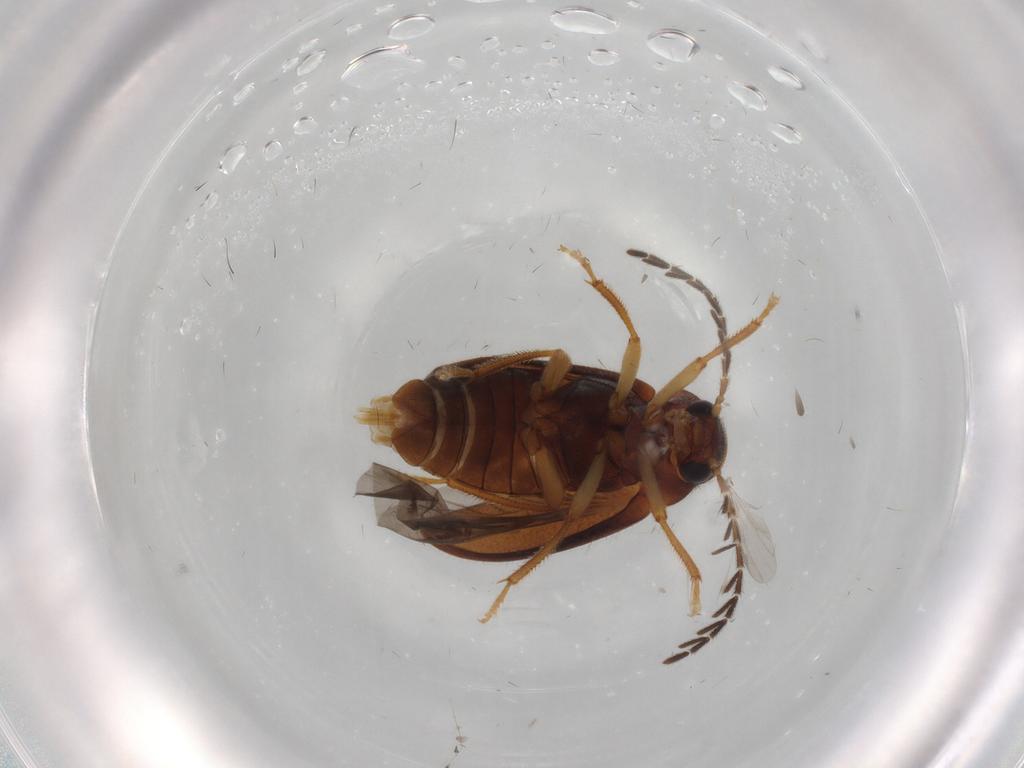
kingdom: Animalia
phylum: Arthropoda
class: Insecta
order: Coleoptera
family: Ptilodactylidae
